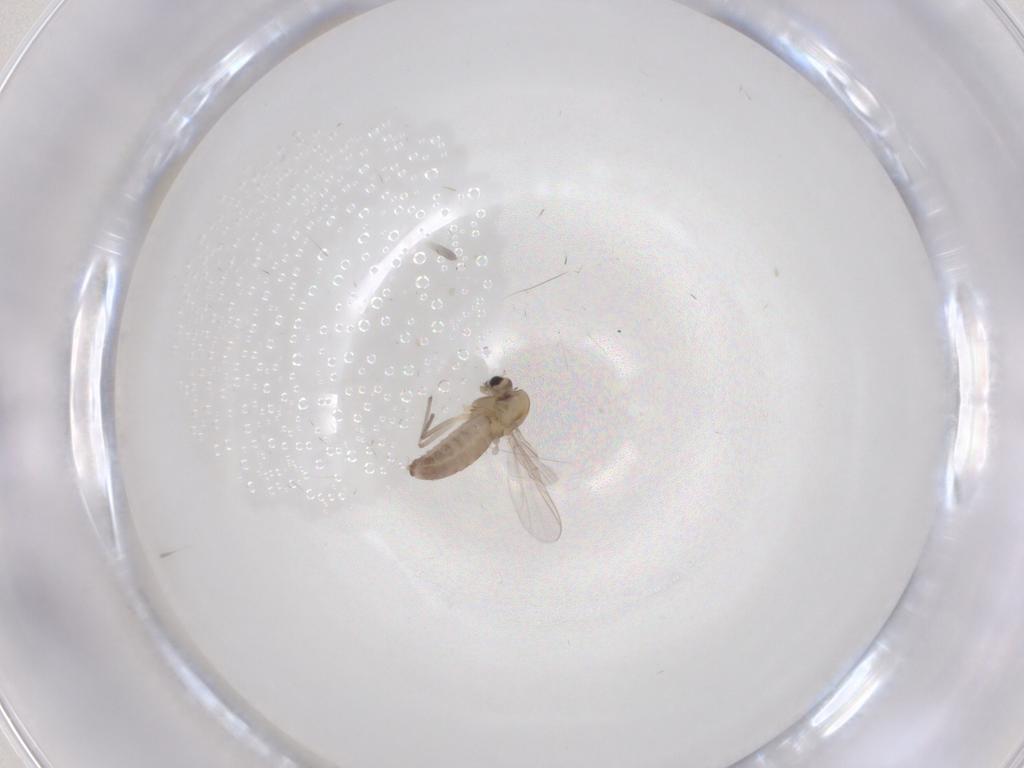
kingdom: Animalia
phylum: Arthropoda
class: Insecta
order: Diptera
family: Chironomidae
